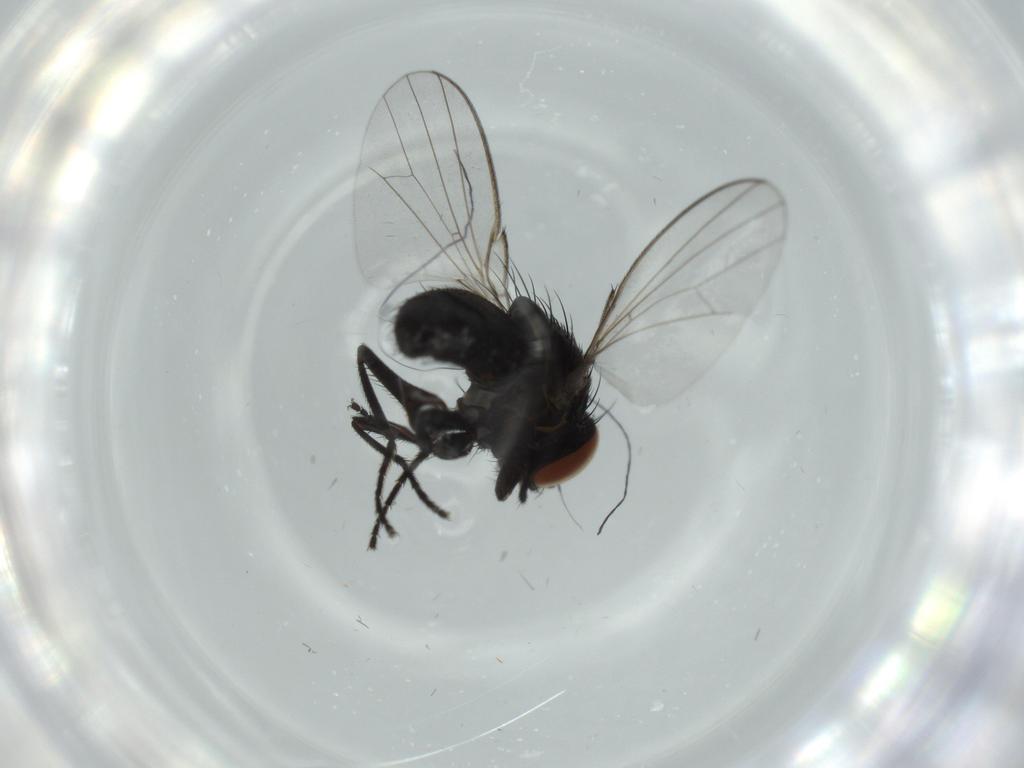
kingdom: Animalia
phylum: Arthropoda
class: Insecta
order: Diptera
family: Milichiidae
